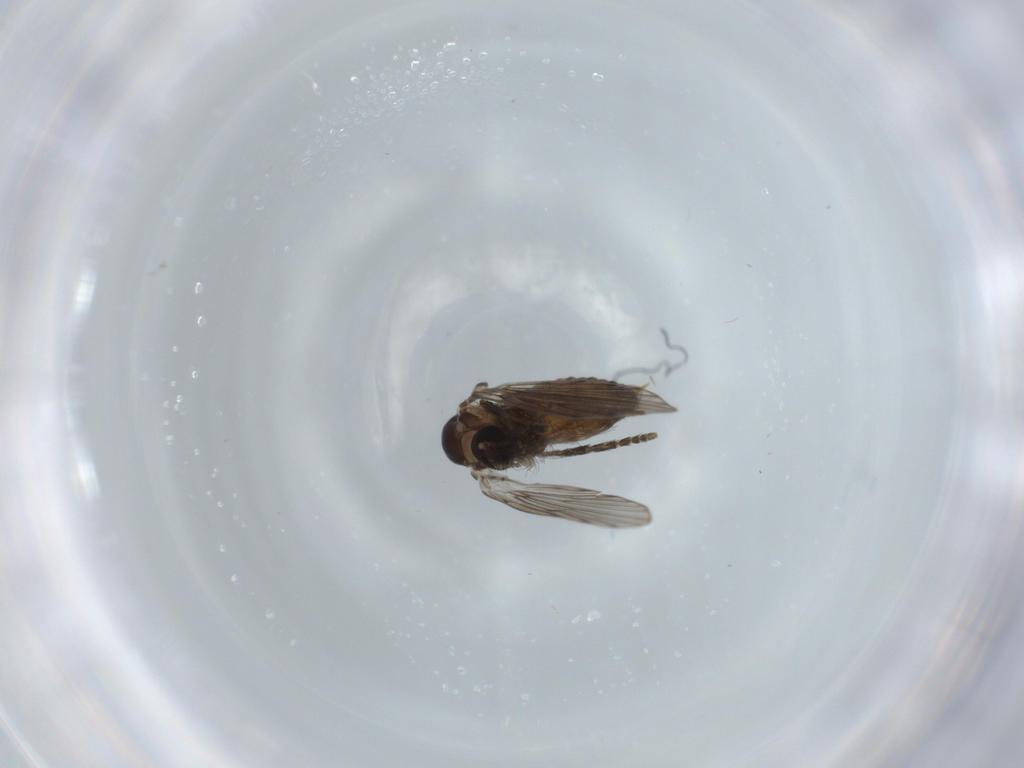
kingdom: Animalia
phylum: Arthropoda
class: Insecta
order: Diptera
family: Psychodidae
